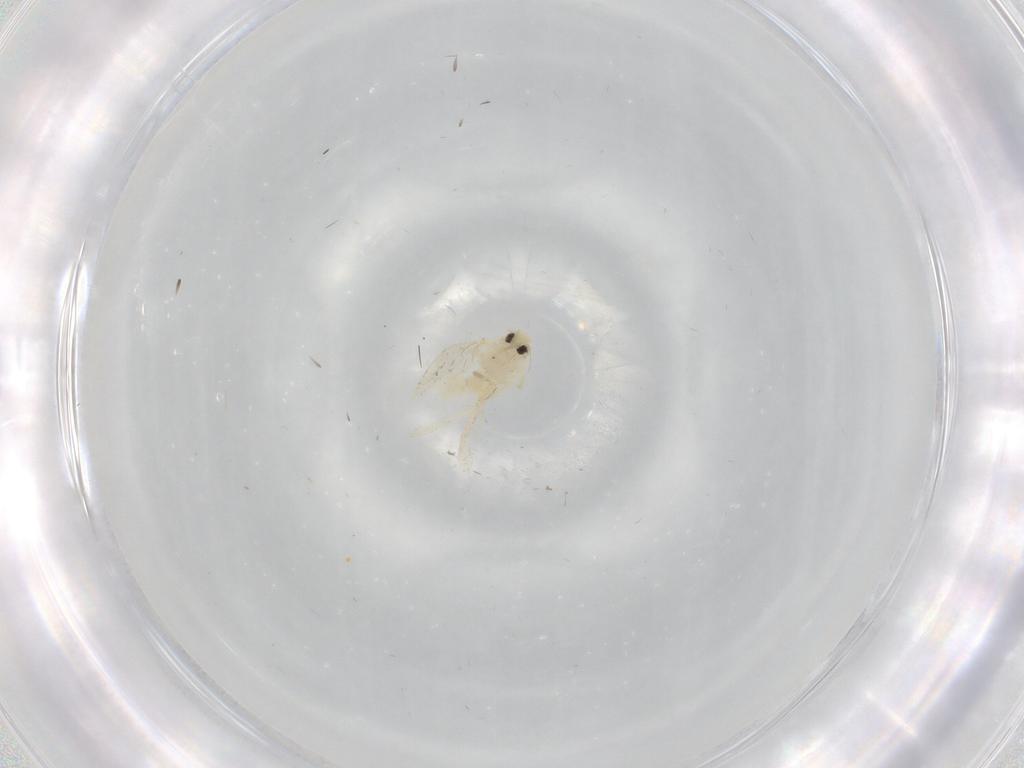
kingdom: Animalia
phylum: Arthropoda
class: Insecta
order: Hemiptera
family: Aleyrodidae
